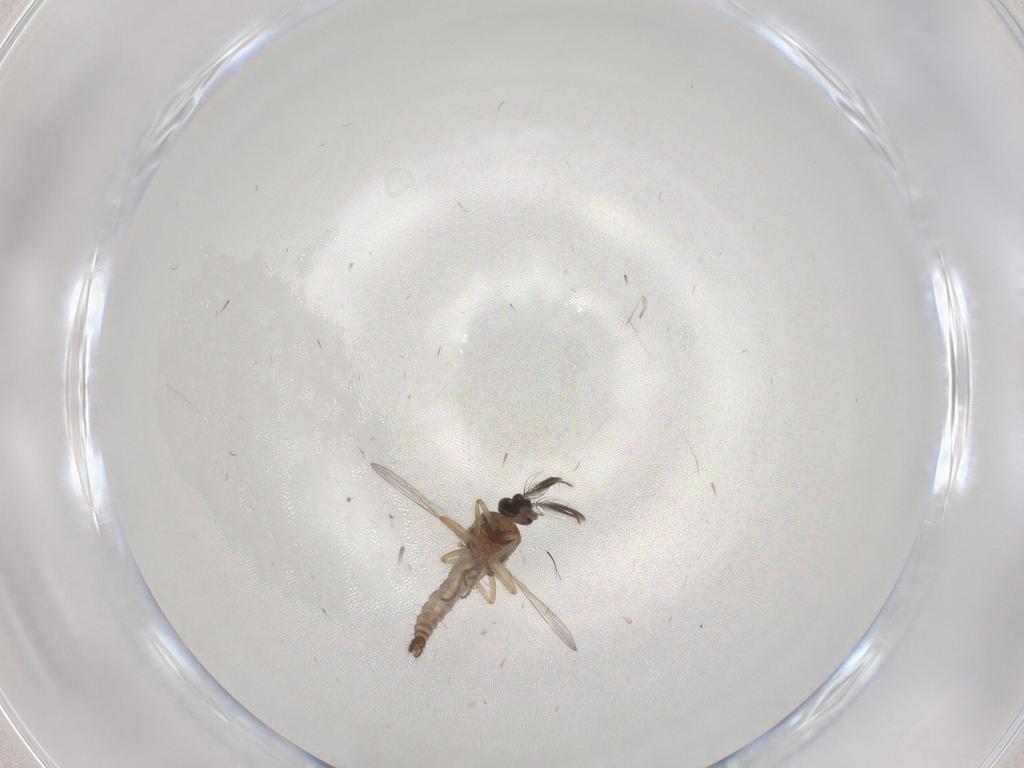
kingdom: Animalia
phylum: Arthropoda
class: Insecta
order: Diptera
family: Psychodidae
